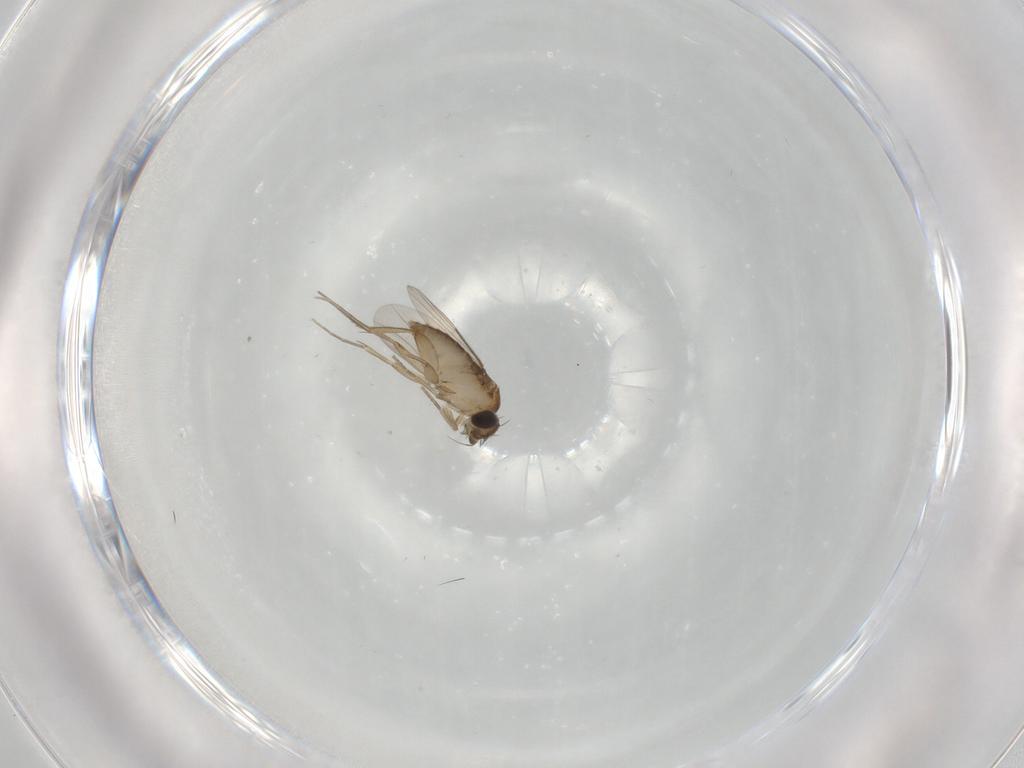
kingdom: Animalia
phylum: Arthropoda
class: Insecta
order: Diptera
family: Phoridae
